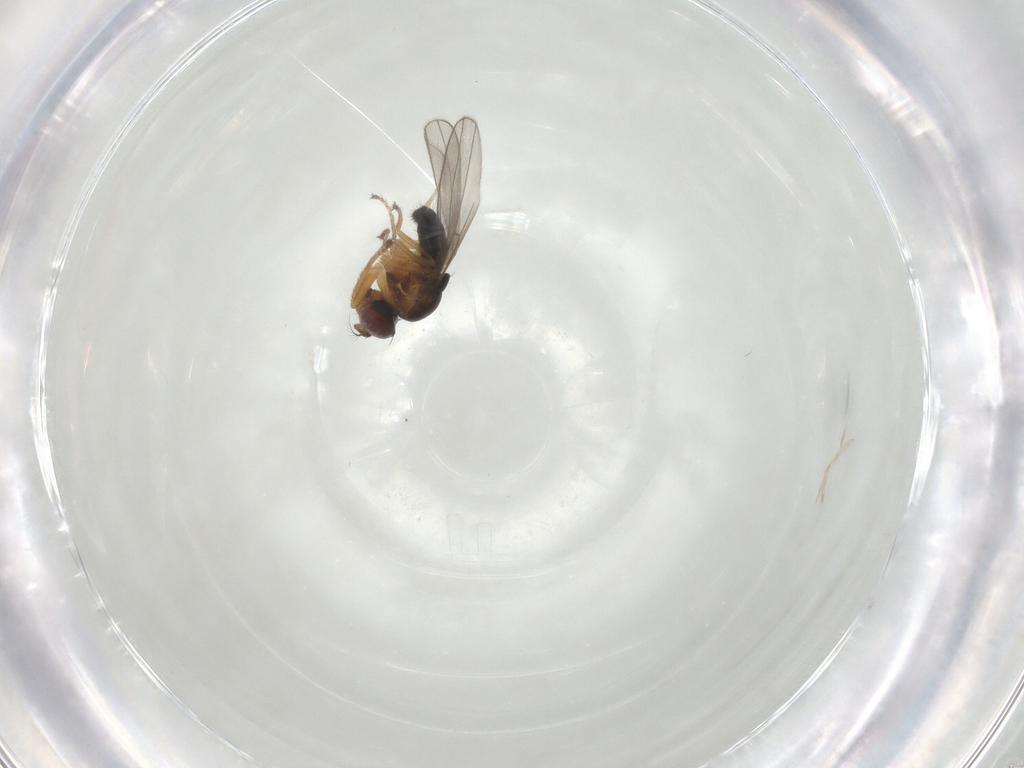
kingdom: Animalia
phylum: Arthropoda
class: Insecta
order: Diptera
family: Ephydridae
